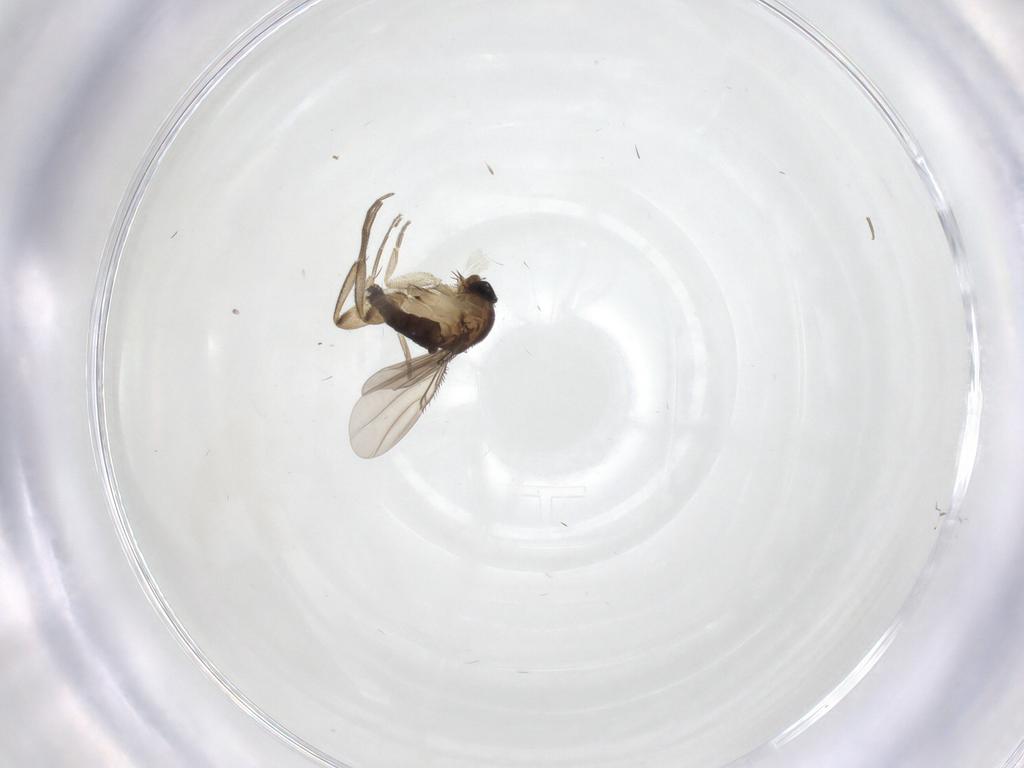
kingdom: Animalia
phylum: Arthropoda
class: Insecta
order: Diptera
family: Phoridae
